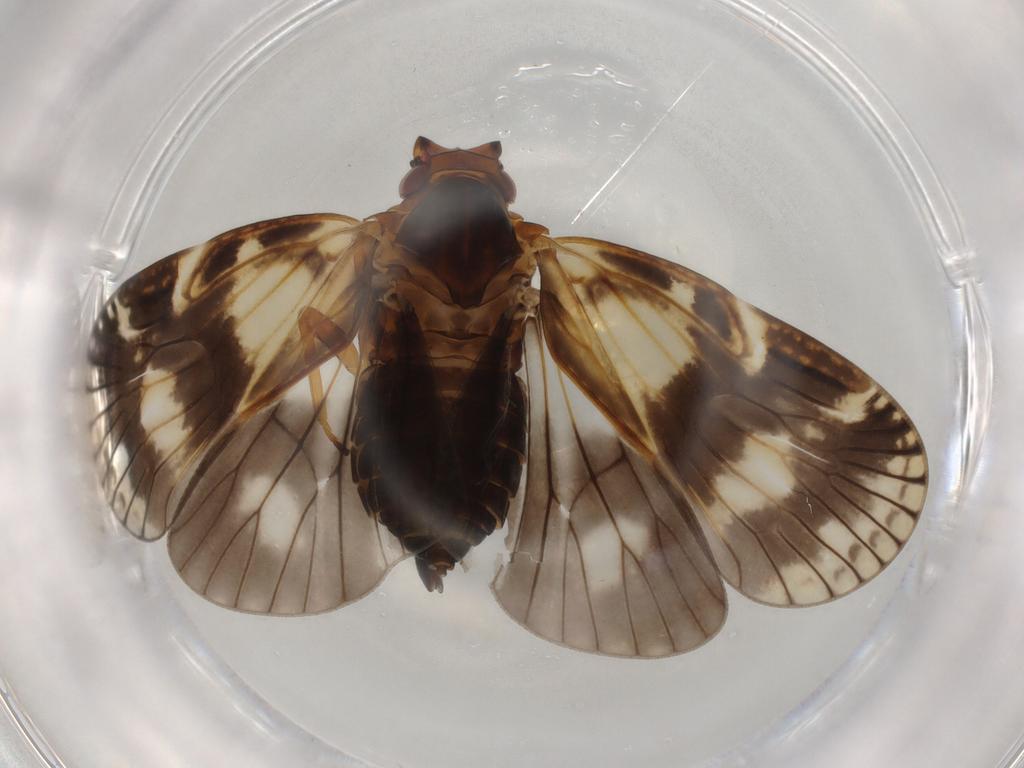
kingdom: Animalia
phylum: Arthropoda
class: Insecta
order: Hemiptera
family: Cixiidae
